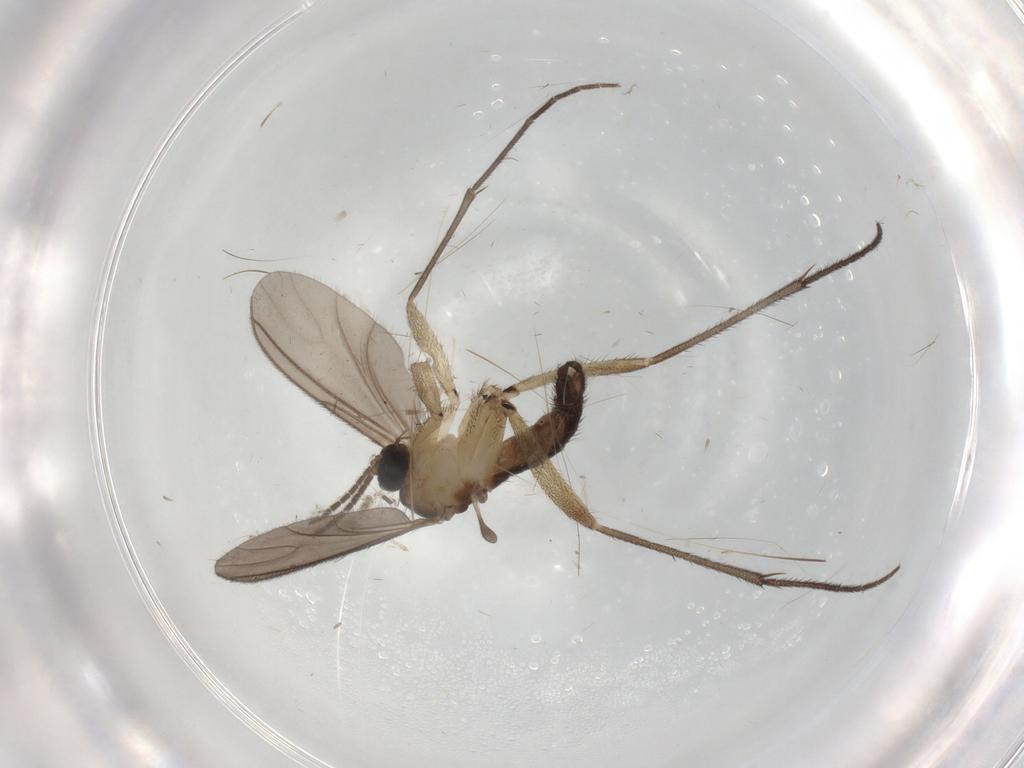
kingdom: Animalia
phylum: Arthropoda
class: Insecta
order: Diptera
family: Sciaridae
